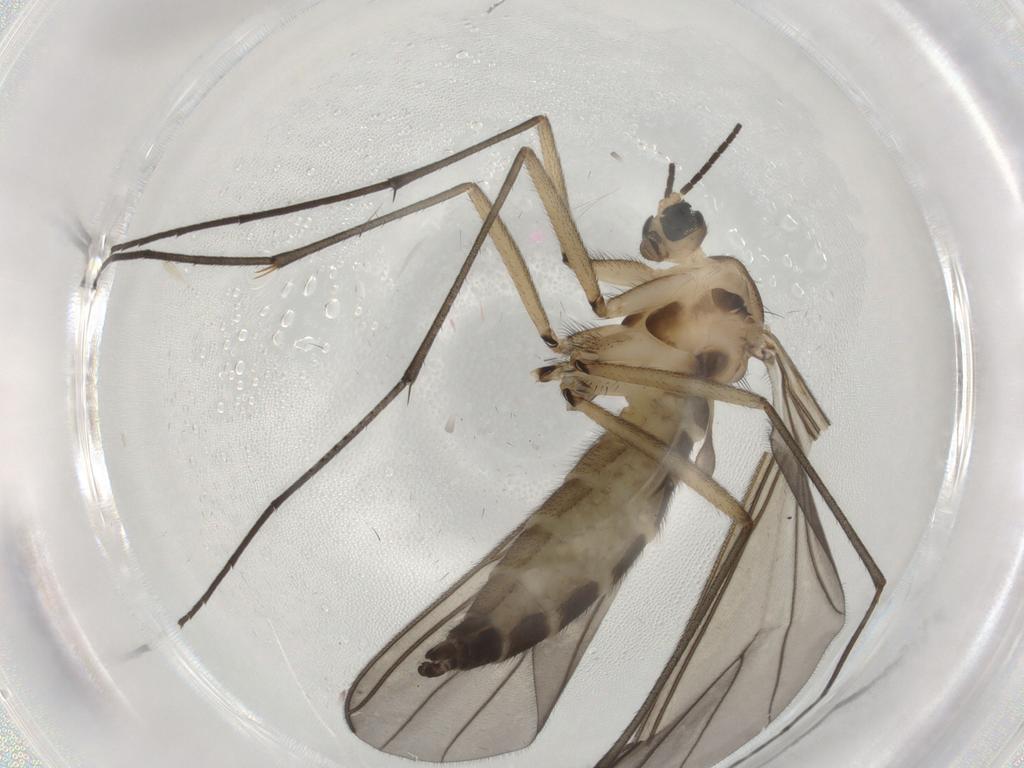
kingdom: Animalia
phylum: Arthropoda
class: Insecta
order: Diptera
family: Sciaridae
